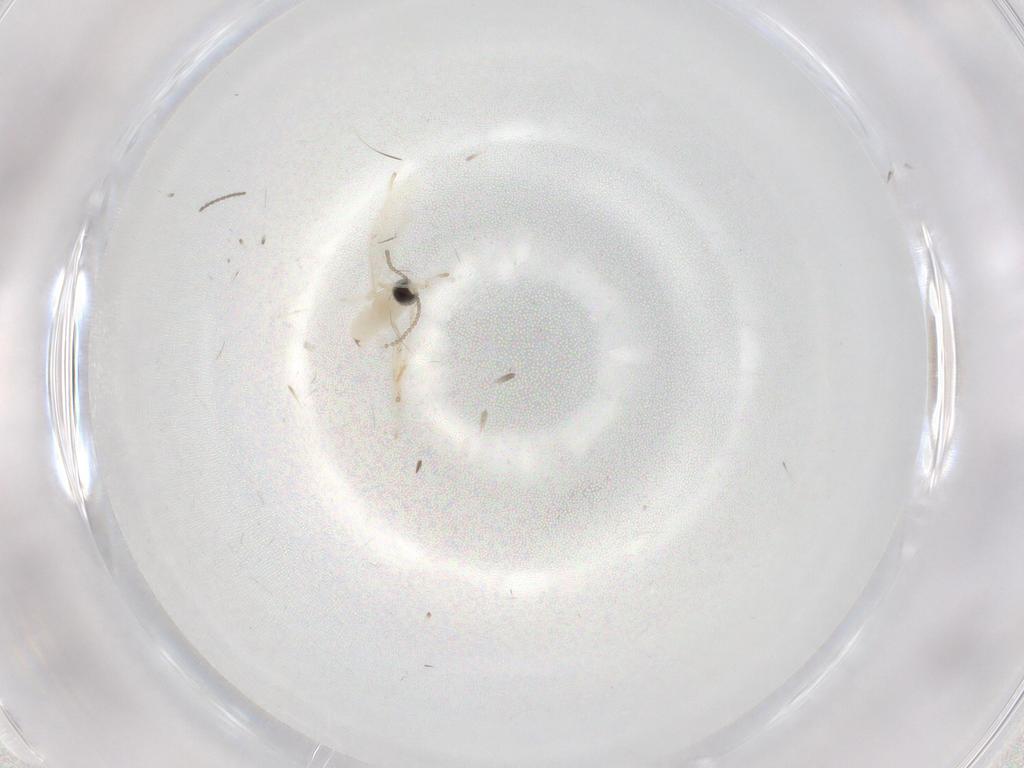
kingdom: Animalia
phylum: Arthropoda
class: Insecta
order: Diptera
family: Cecidomyiidae
